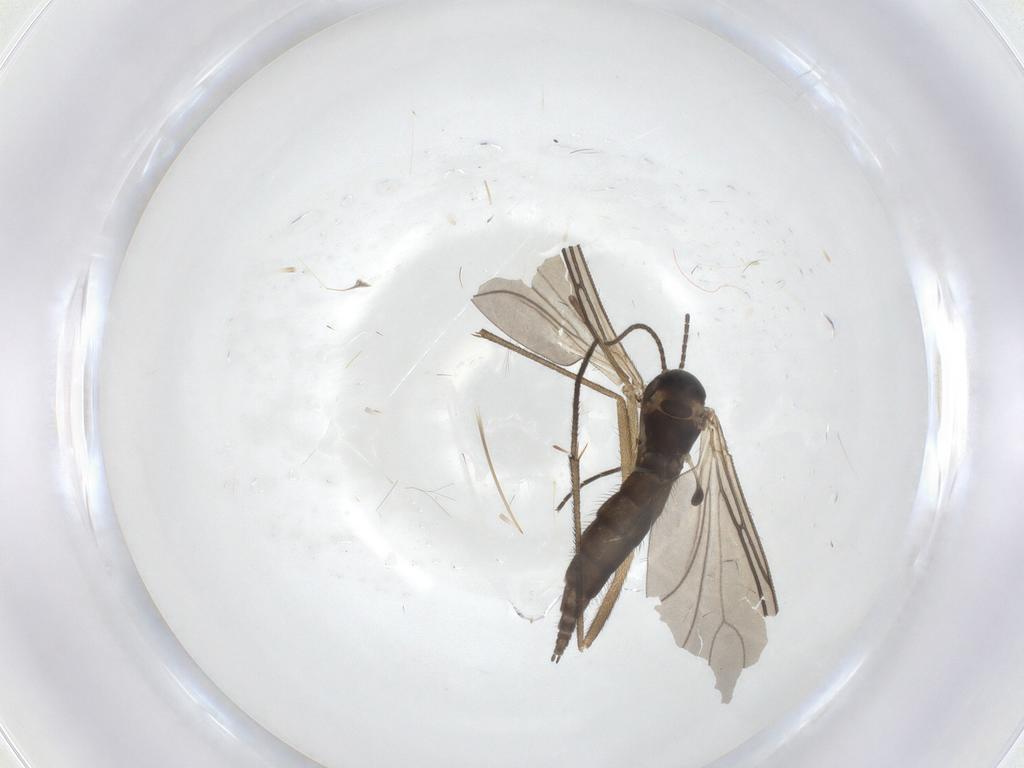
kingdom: Animalia
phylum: Arthropoda
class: Insecta
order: Diptera
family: Sciaridae
